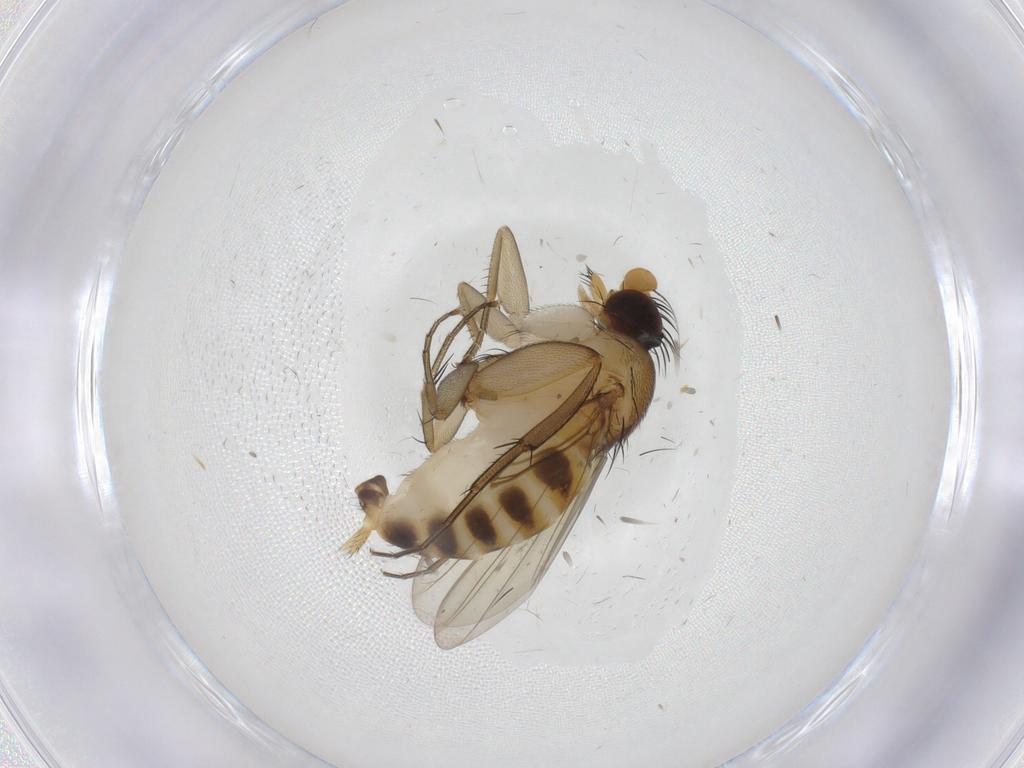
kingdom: Animalia
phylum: Arthropoda
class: Insecta
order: Diptera
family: Phoridae
